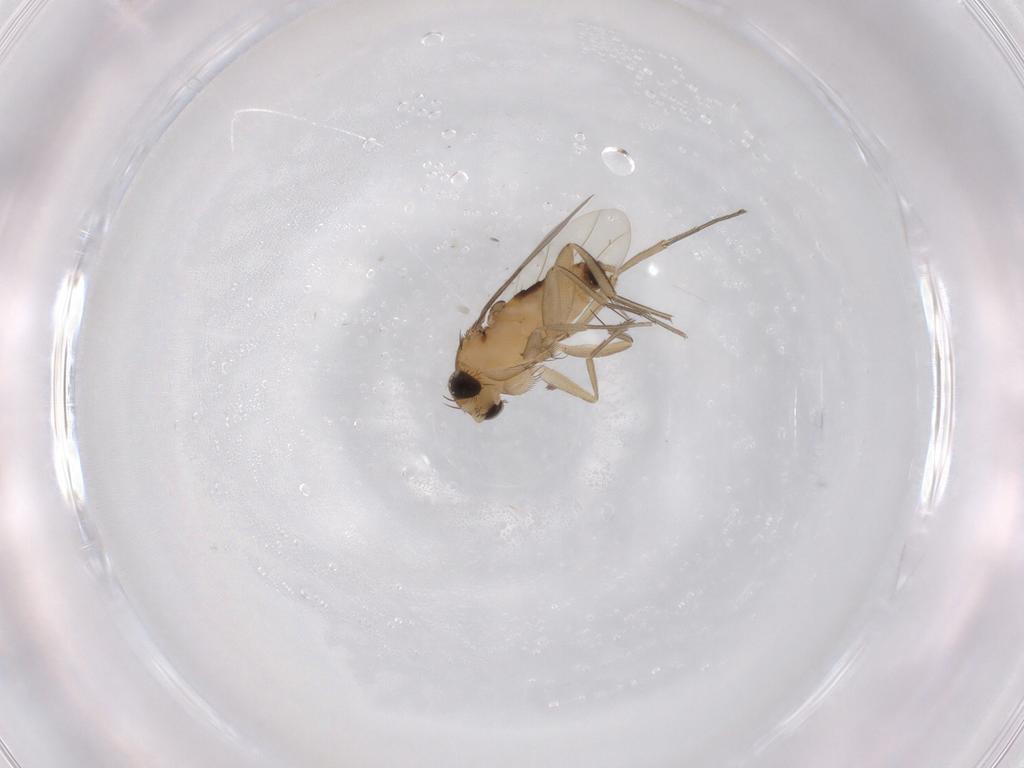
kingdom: Animalia
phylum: Arthropoda
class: Insecta
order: Diptera
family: Phoridae
